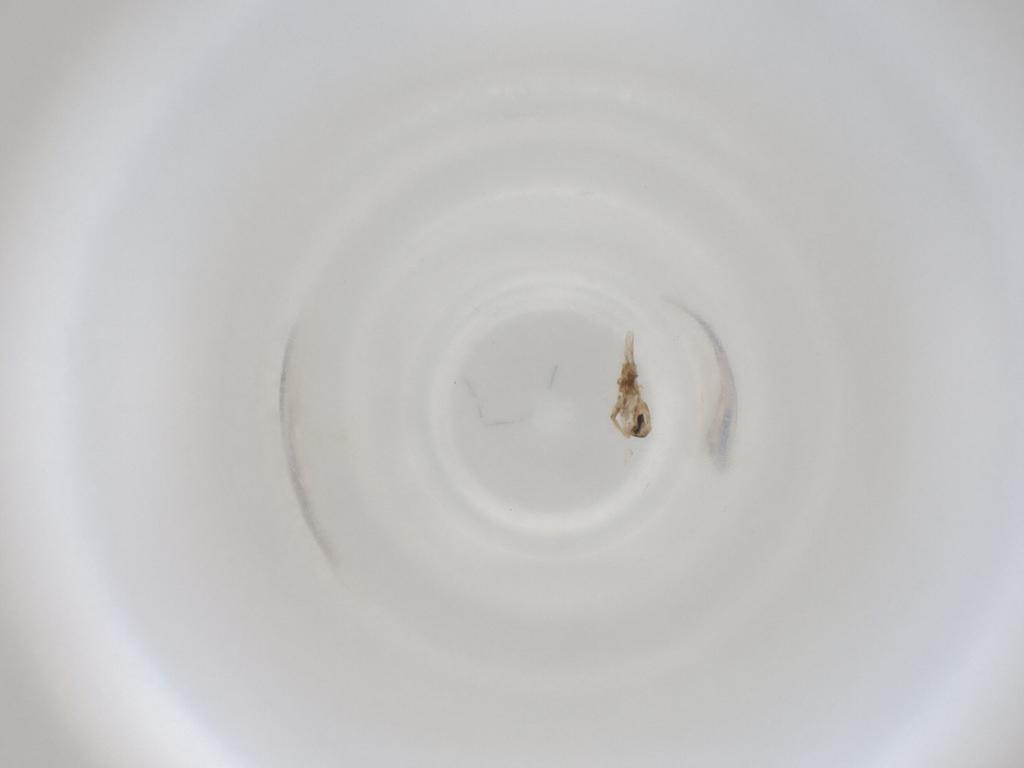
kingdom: Animalia
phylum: Arthropoda
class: Insecta
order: Diptera
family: Cecidomyiidae
